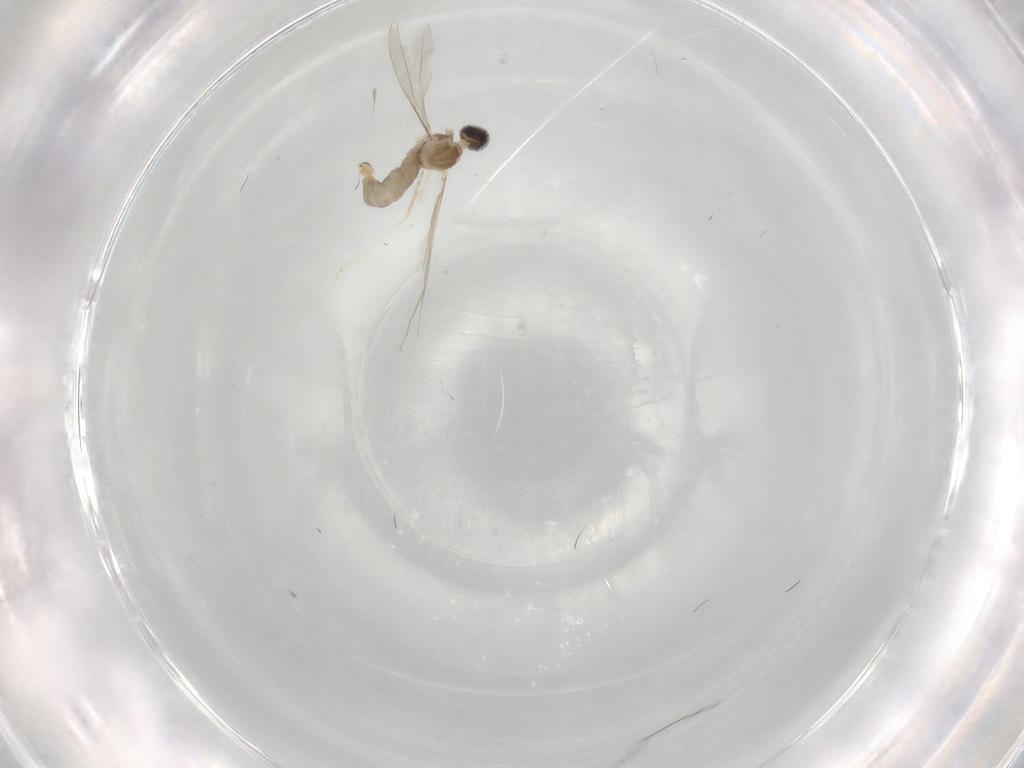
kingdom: Animalia
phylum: Arthropoda
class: Insecta
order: Diptera
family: Cecidomyiidae
